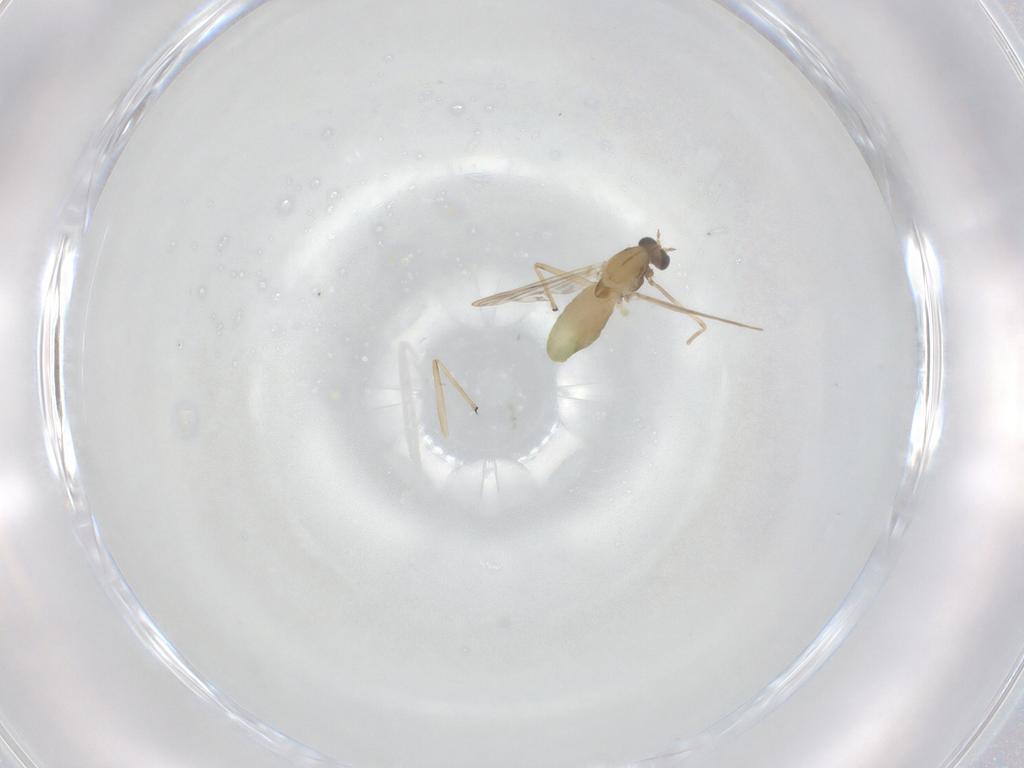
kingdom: Animalia
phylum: Arthropoda
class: Insecta
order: Diptera
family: Chironomidae
